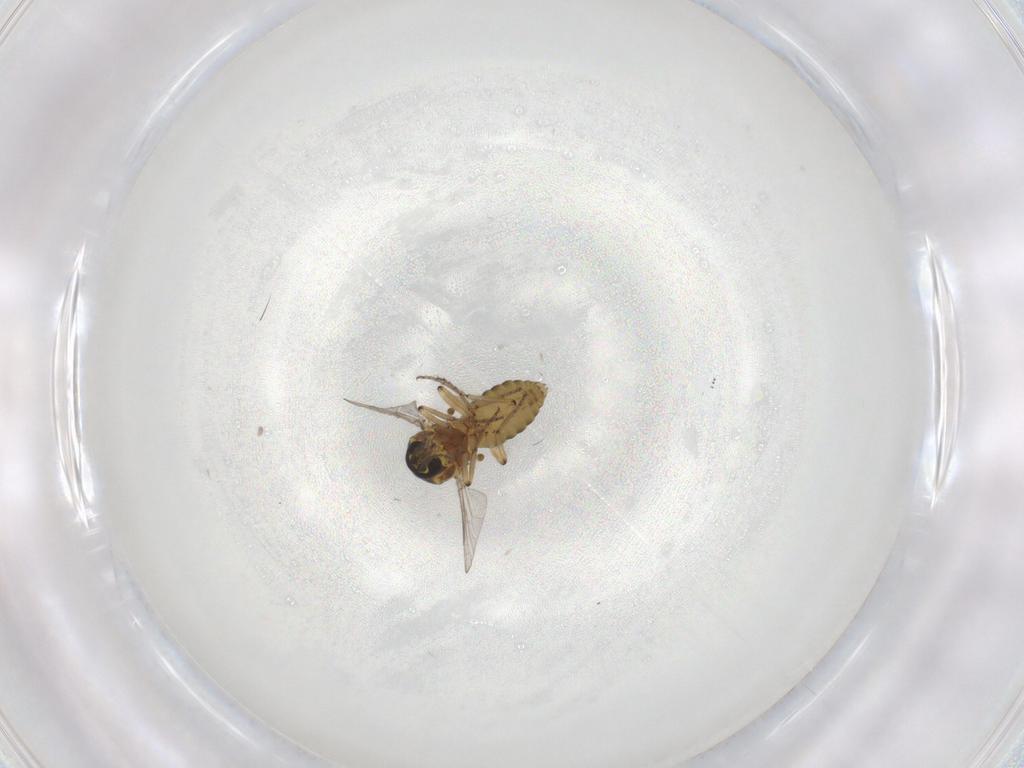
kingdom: Animalia
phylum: Arthropoda
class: Insecta
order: Diptera
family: Ceratopogonidae
